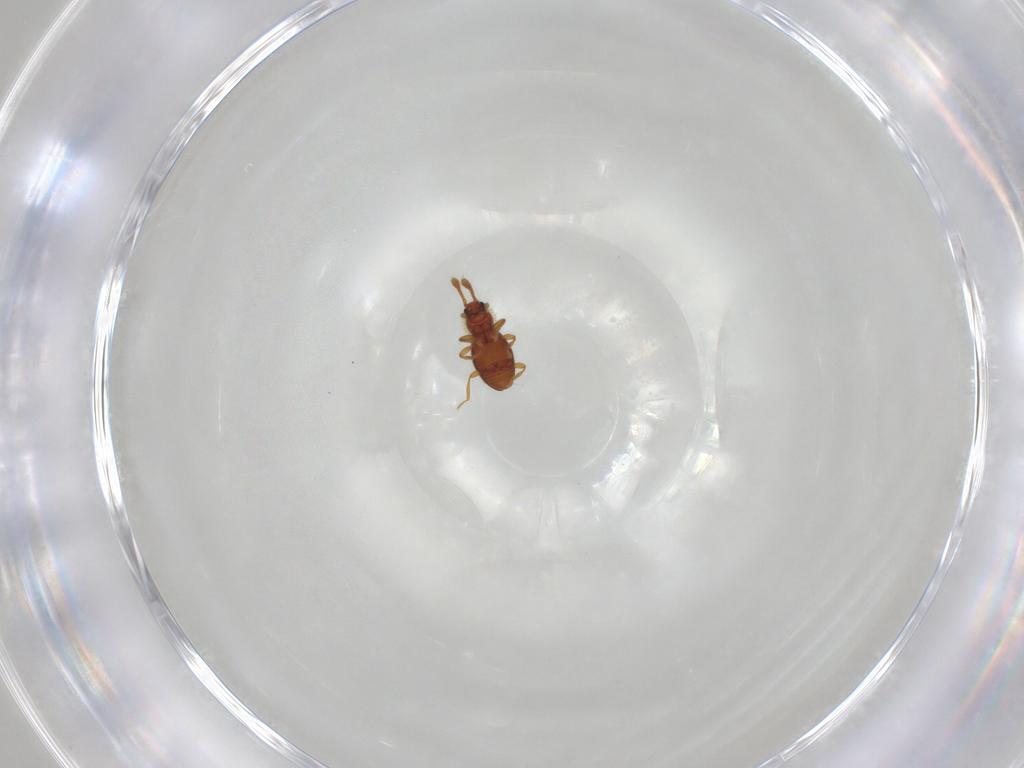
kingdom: Animalia
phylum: Arthropoda
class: Insecta
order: Coleoptera
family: Staphylinidae
